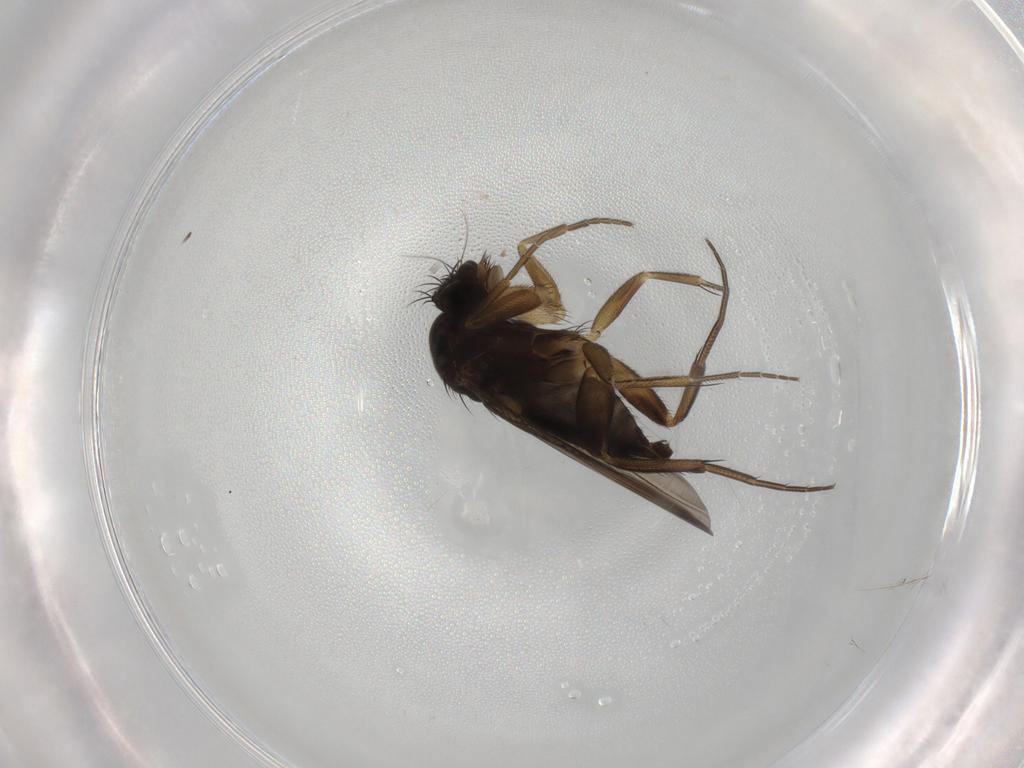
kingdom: Animalia
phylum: Arthropoda
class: Insecta
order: Diptera
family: Phoridae
